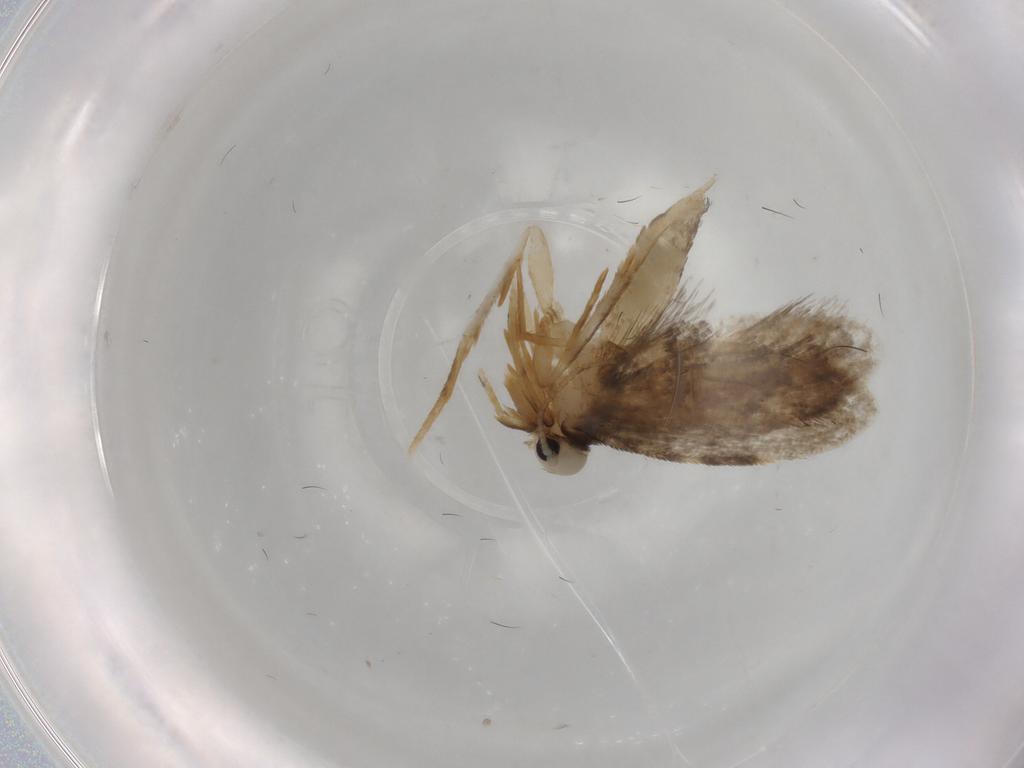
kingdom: Animalia
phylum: Arthropoda
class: Insecta
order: Lepidoptera
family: Psychidae
